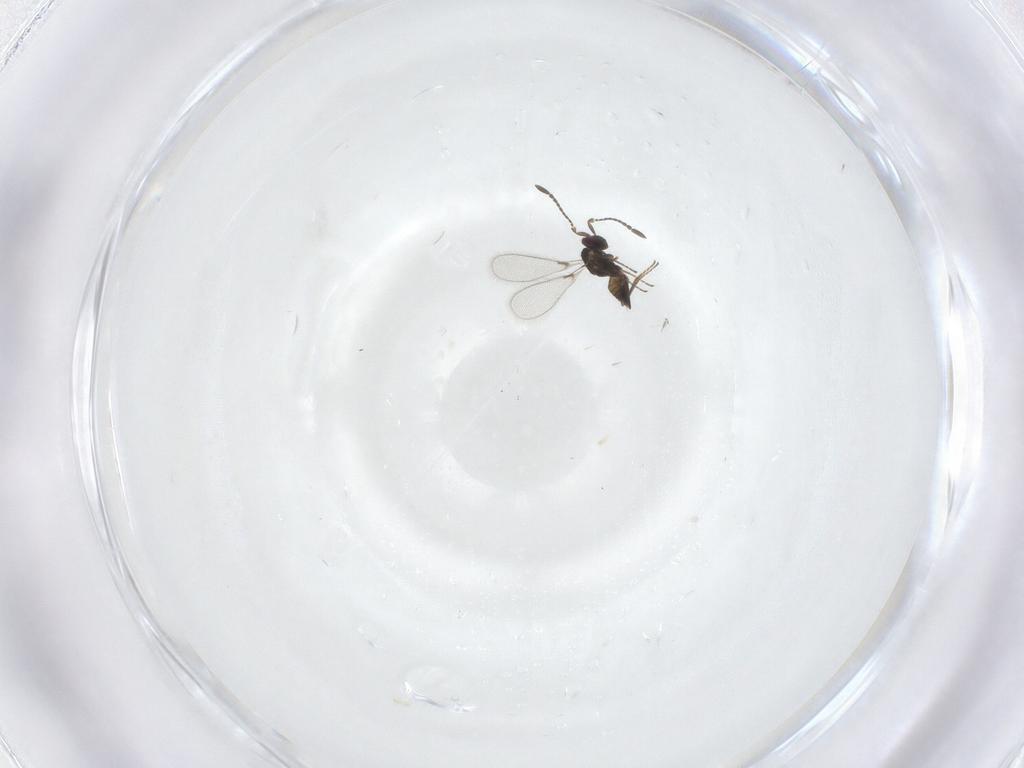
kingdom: Animalia
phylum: Arthropoda
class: Insecta
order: Hymenoptera
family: Mymaridae
